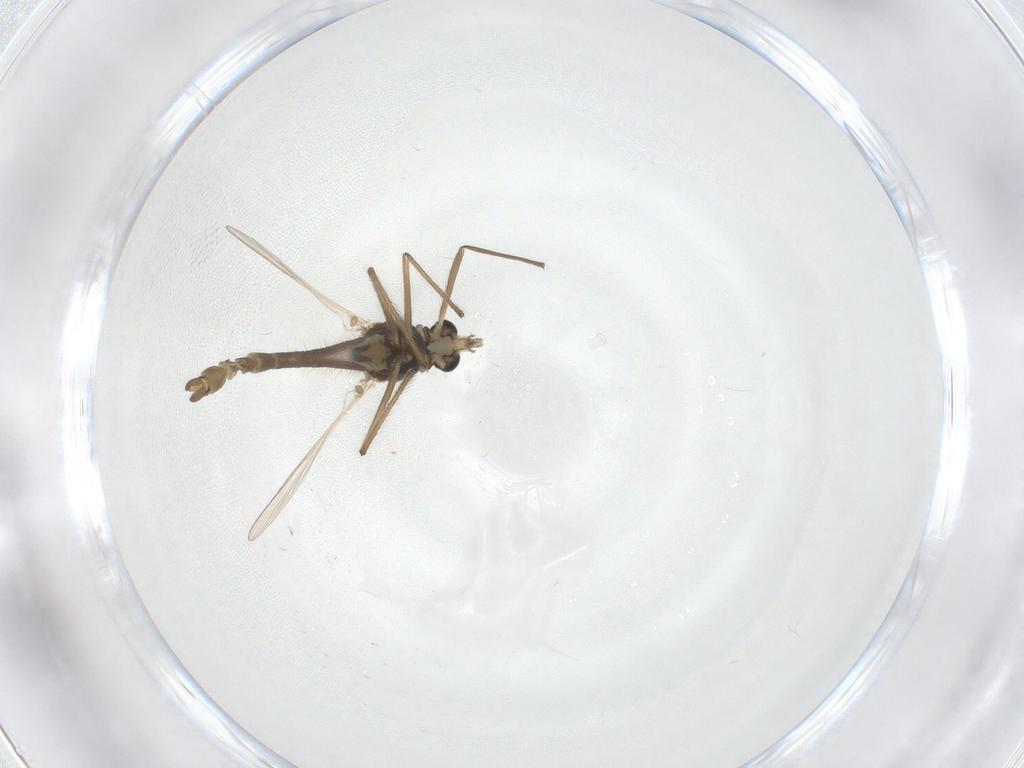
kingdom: Animalia
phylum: Arthropoda
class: Insecta
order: Diptera
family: Chironomidae
